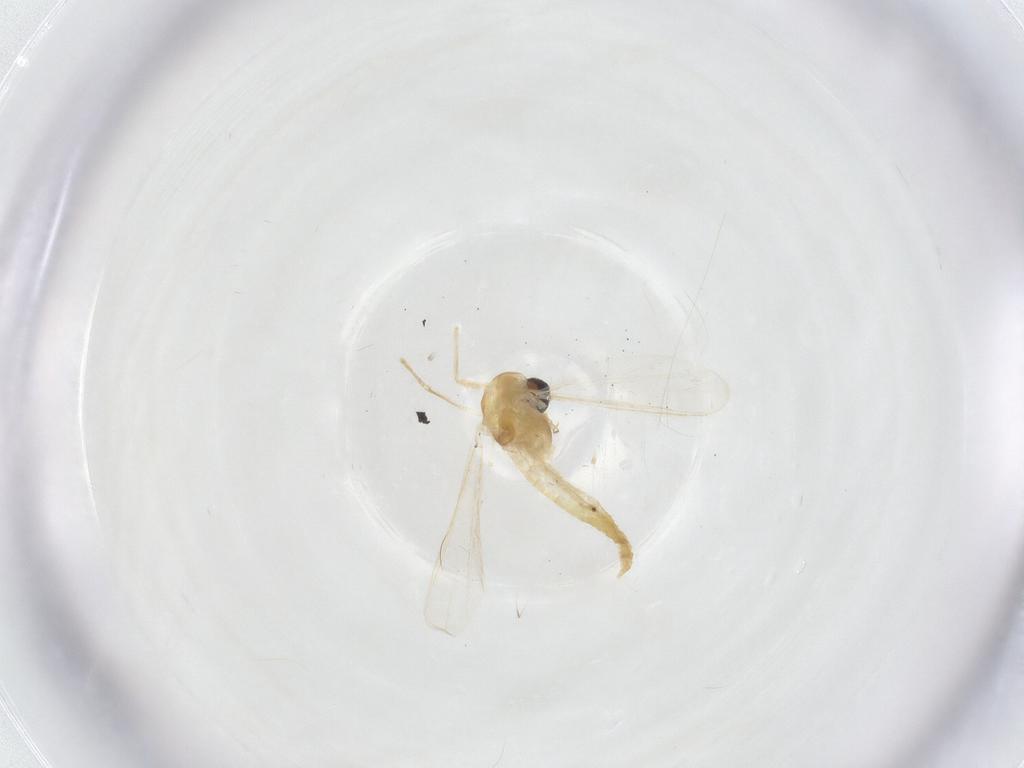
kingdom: Animalia
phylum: Arthropoda
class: Insecta
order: Diptera
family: Chironomidae
